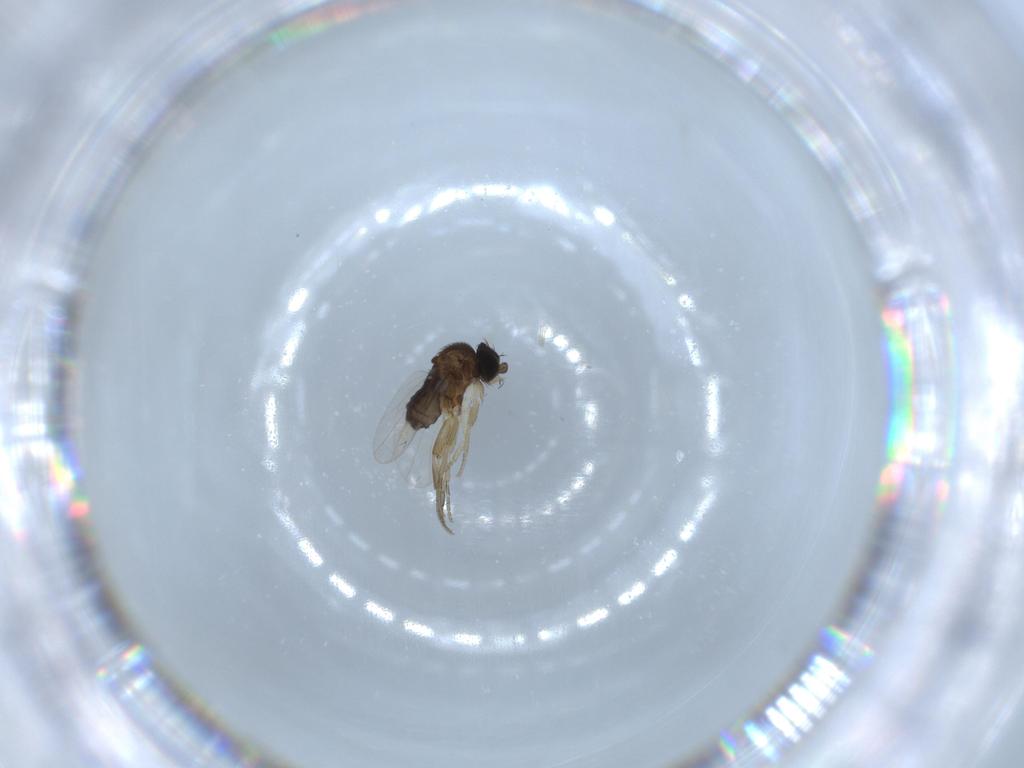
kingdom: Animalia
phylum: Arthropoda
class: Insecta
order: Diptera
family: Phoridae
